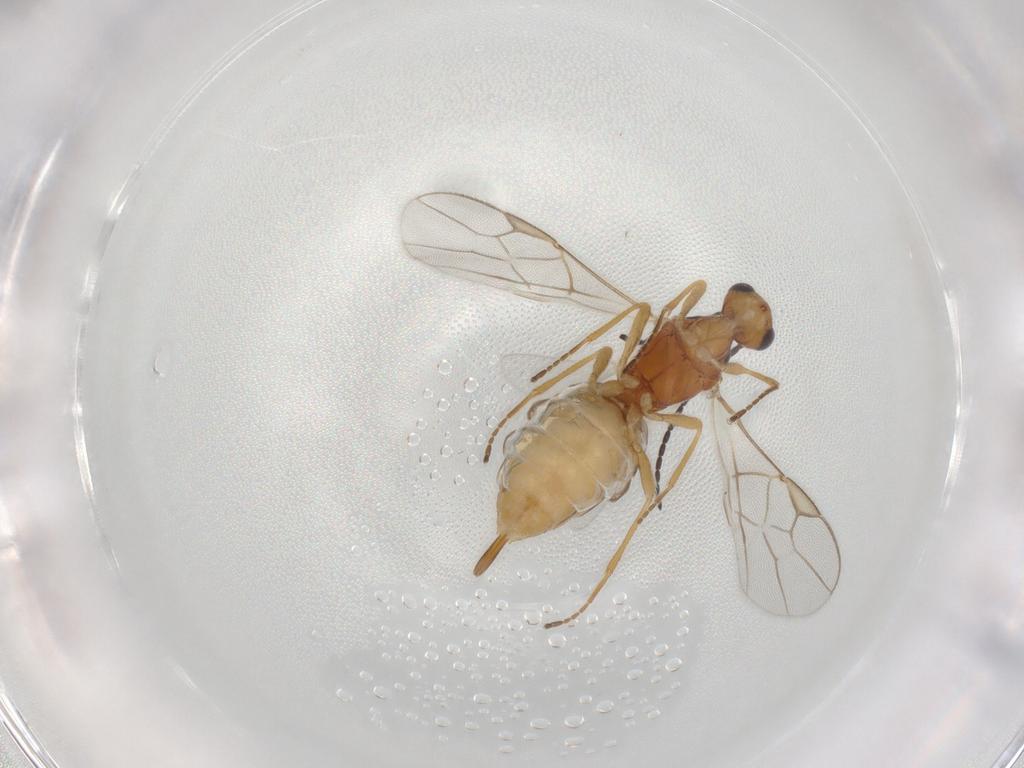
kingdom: Animalia
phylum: Arthropoda
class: Insecta
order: Hymenoptera
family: Braconidae
